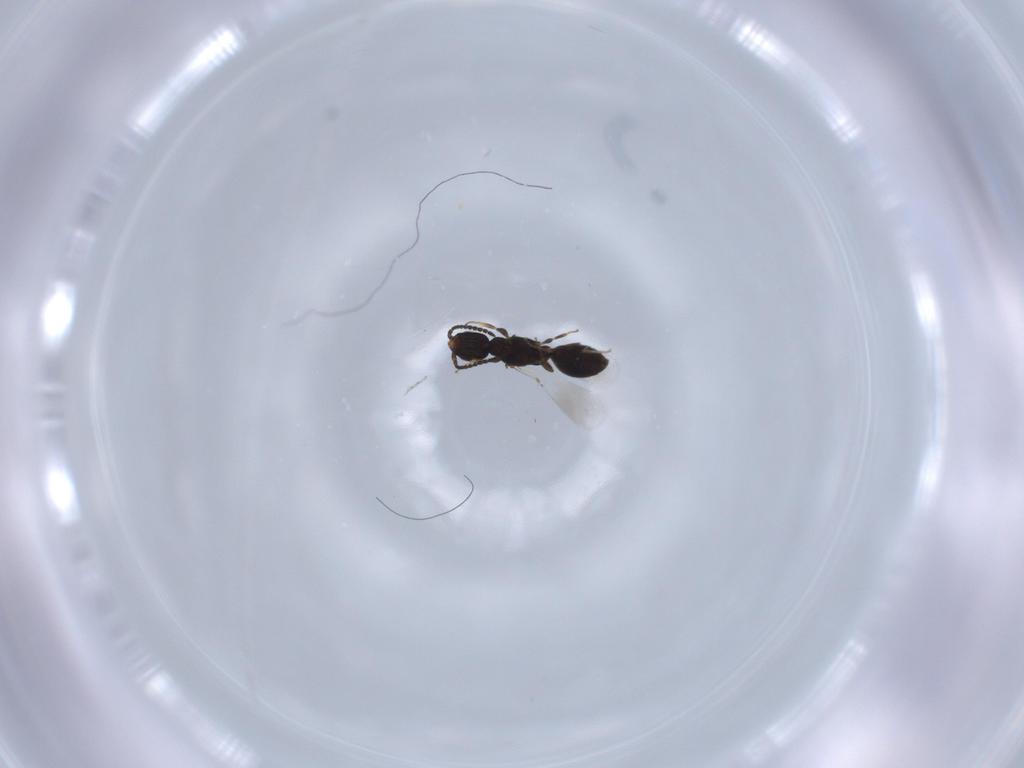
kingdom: Animalia
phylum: Arthropoda
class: Insecta
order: Hymenoptera
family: Bethylidae
